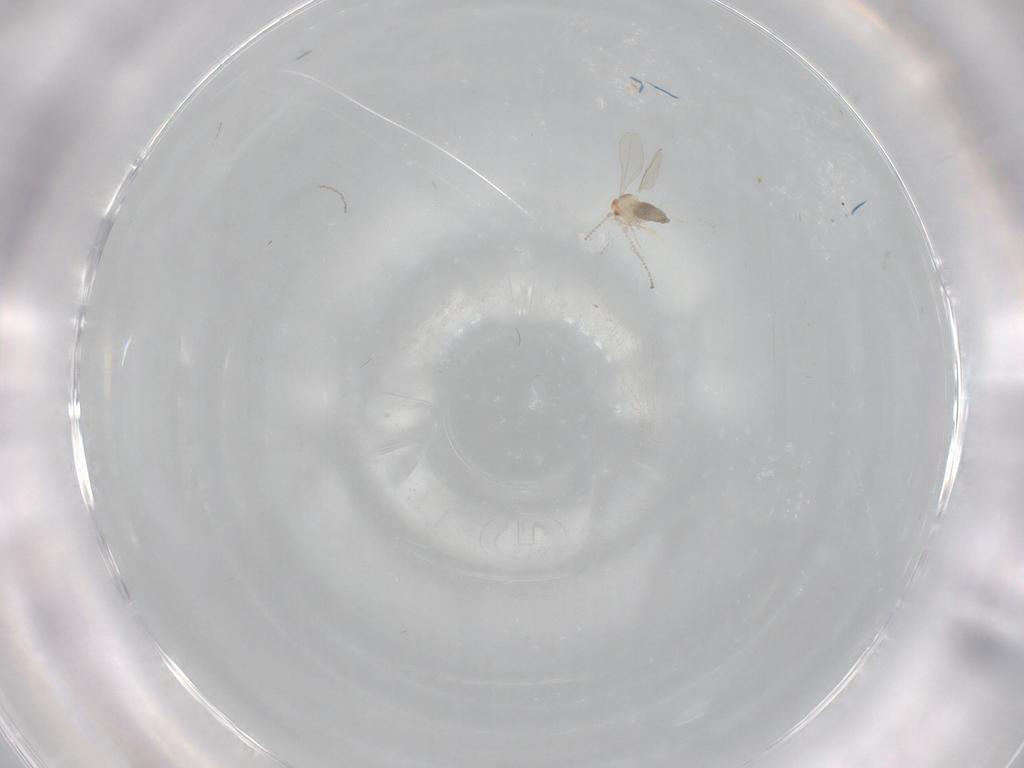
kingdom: Animalia
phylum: Arthropoda
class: Insecta
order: Diptera
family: Cecidomyiidae
